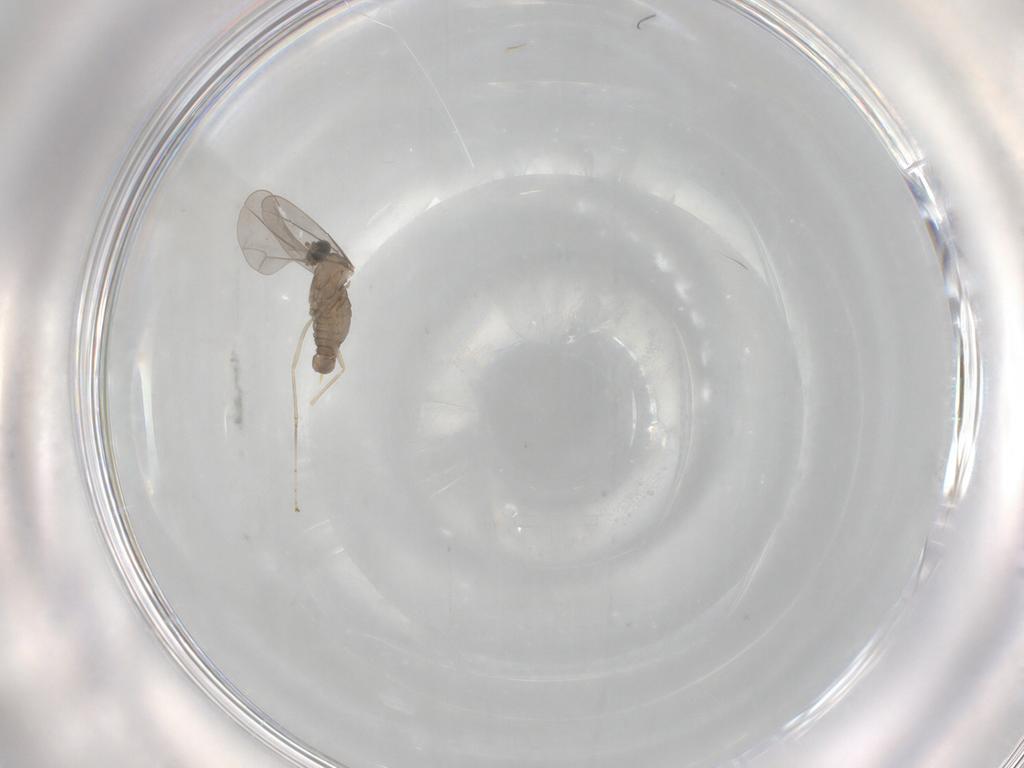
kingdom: Animalia
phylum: Arthropoda
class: Insecta
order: Diptera
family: Cecidomyiidae
